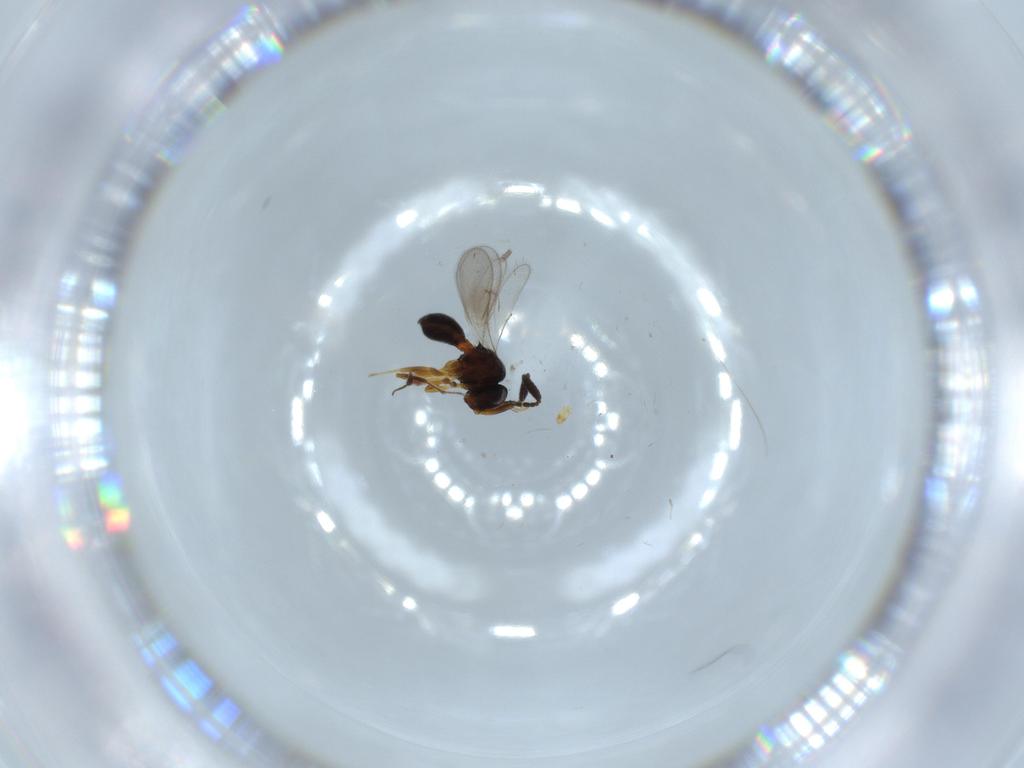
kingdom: Animalia
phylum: Arthropoda
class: Insecta
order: Hymenoptera
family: Scelionidae
